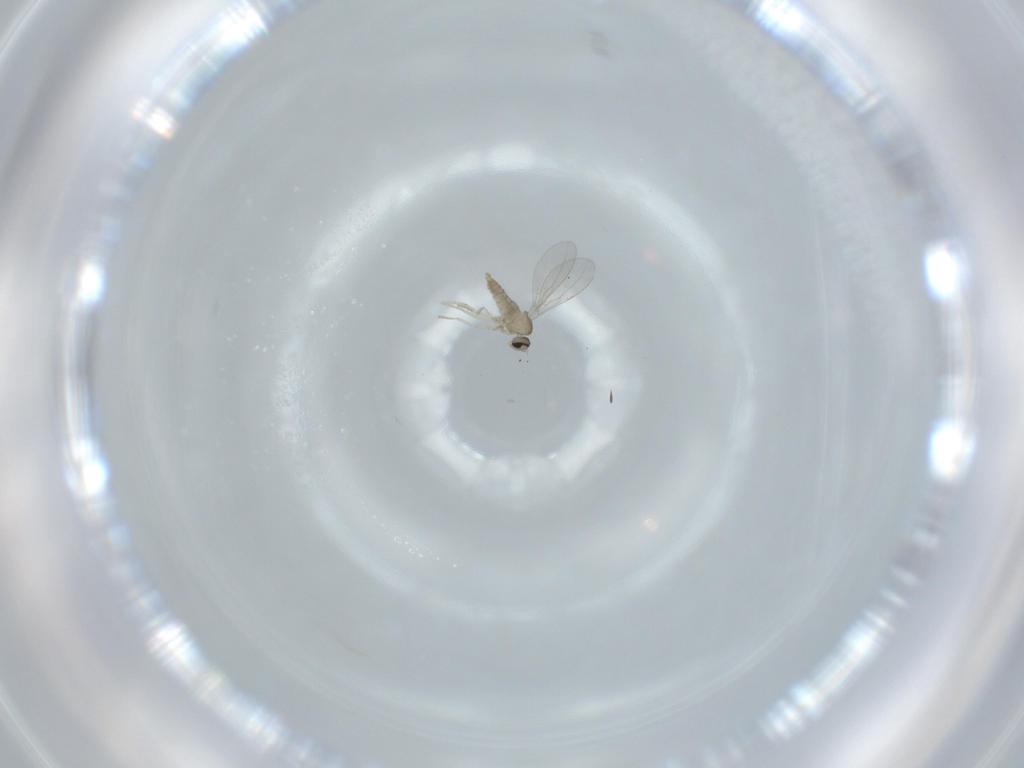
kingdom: Animalia
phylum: Arthropoda
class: Insecta
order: Diptera
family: Cecidomyiidae
